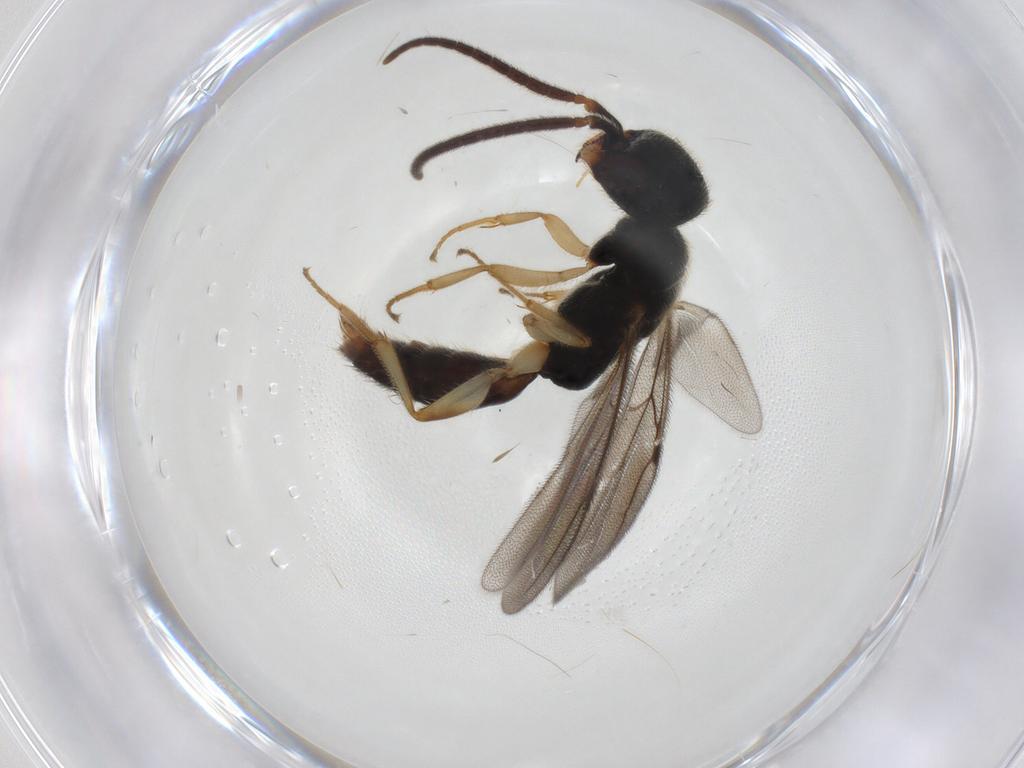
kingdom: Animalia
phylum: Arthropoda
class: Insecta
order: Hymenoptera
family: Bethylidae
